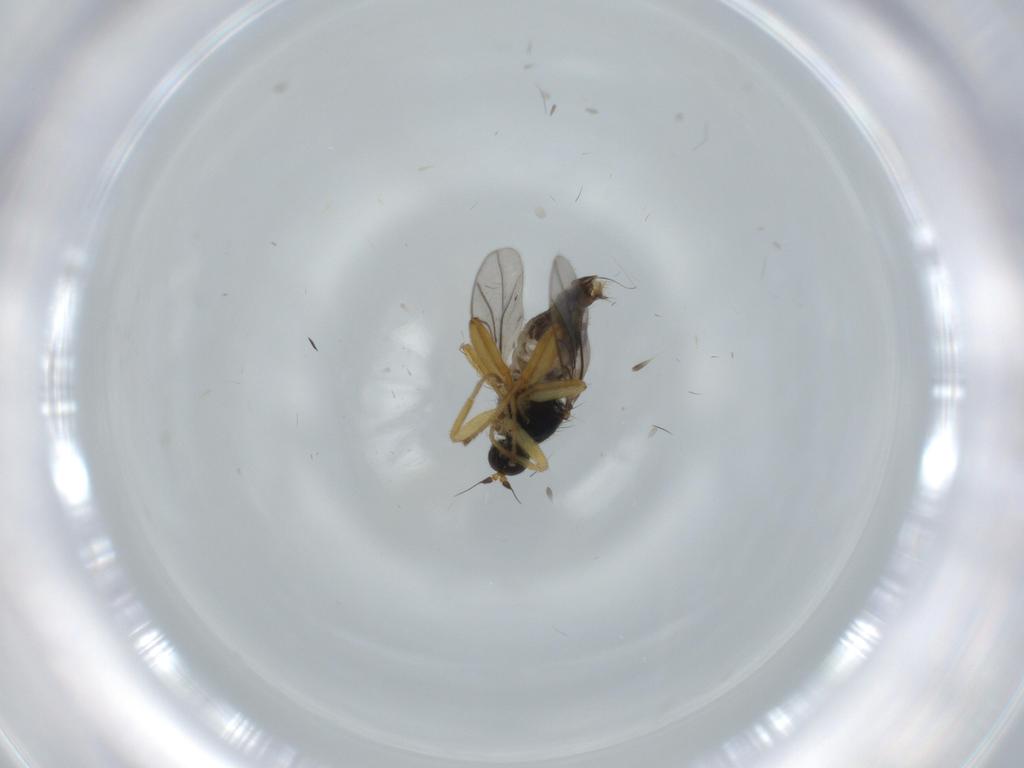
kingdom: Animalia
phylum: Arthropoda
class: Insecta
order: Diptera
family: Hybotidae
